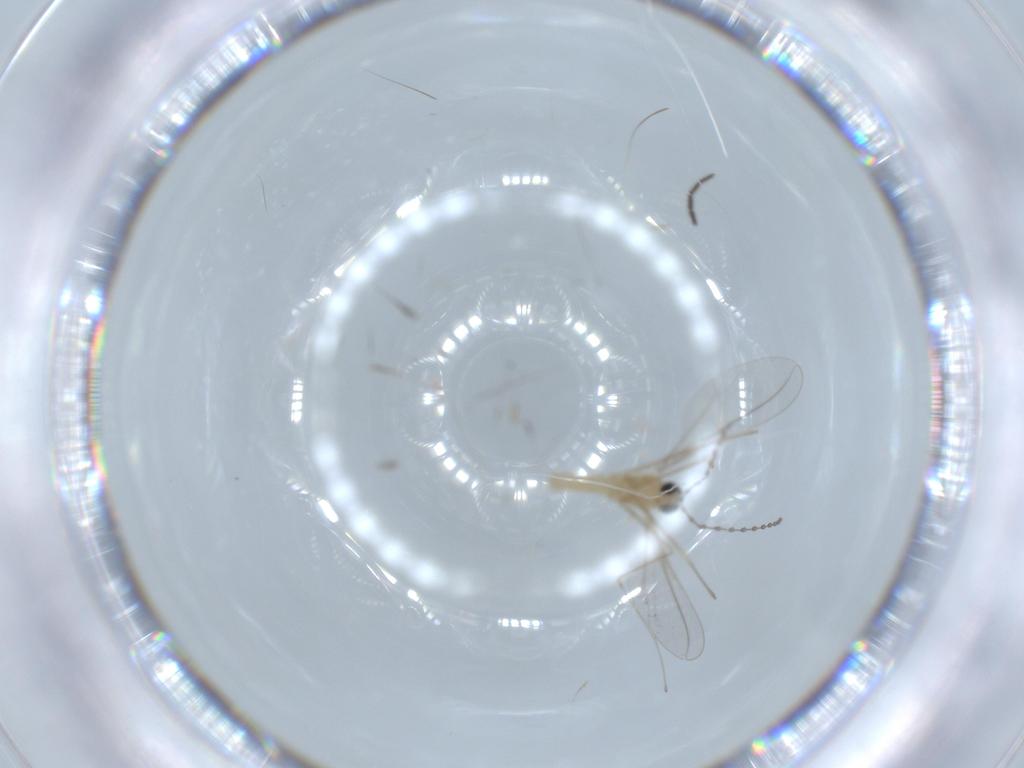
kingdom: Animalia
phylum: Arthropoda
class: Insecta
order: Diptera
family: Cecidomyiidae
